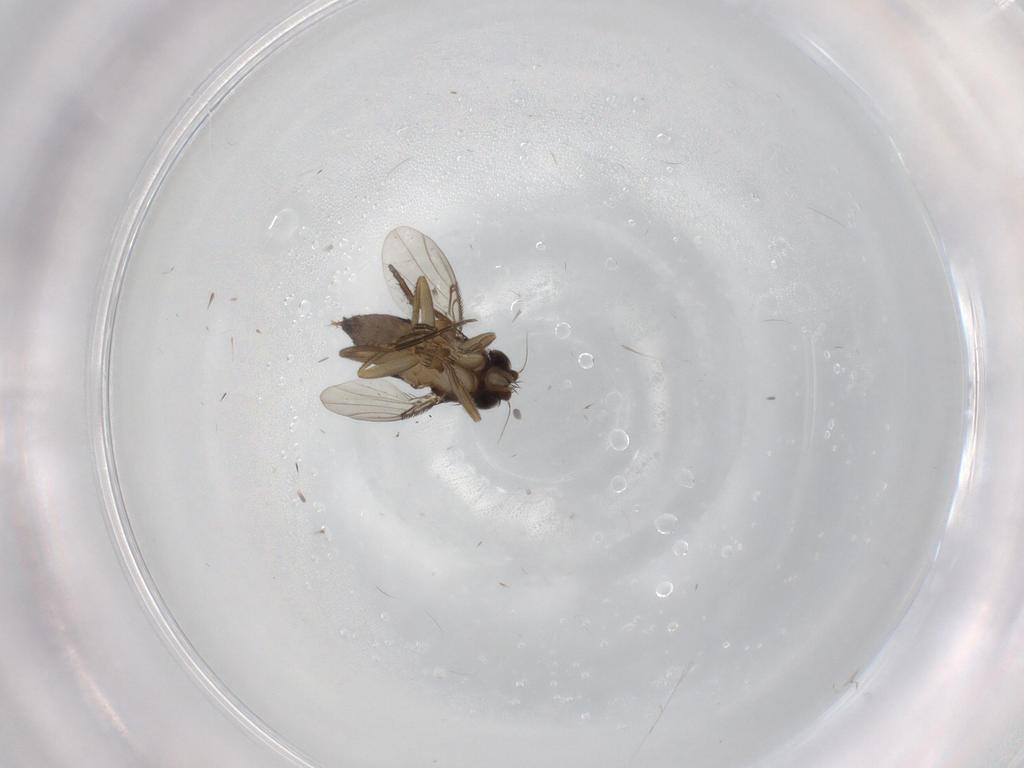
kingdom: Animalia
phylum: Arthropoda
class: Insecta
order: Diptera
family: Phoridae
